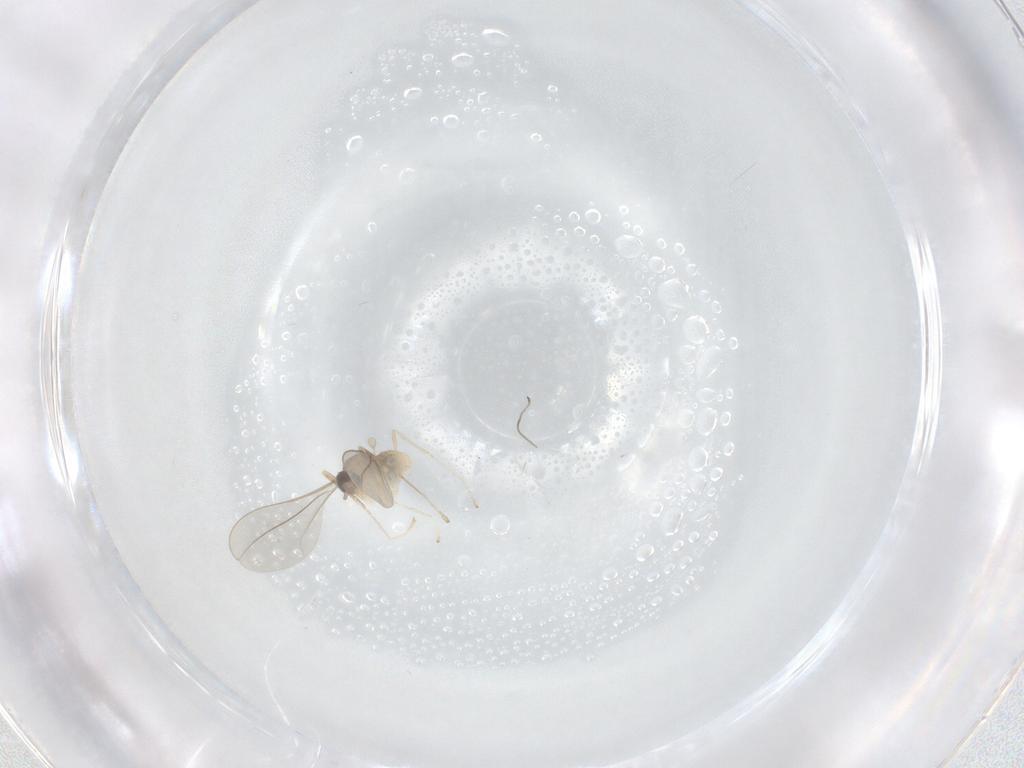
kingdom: Animalia
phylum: Arthropoda
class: Insecta
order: Diptera
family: Cecidomyiidae
